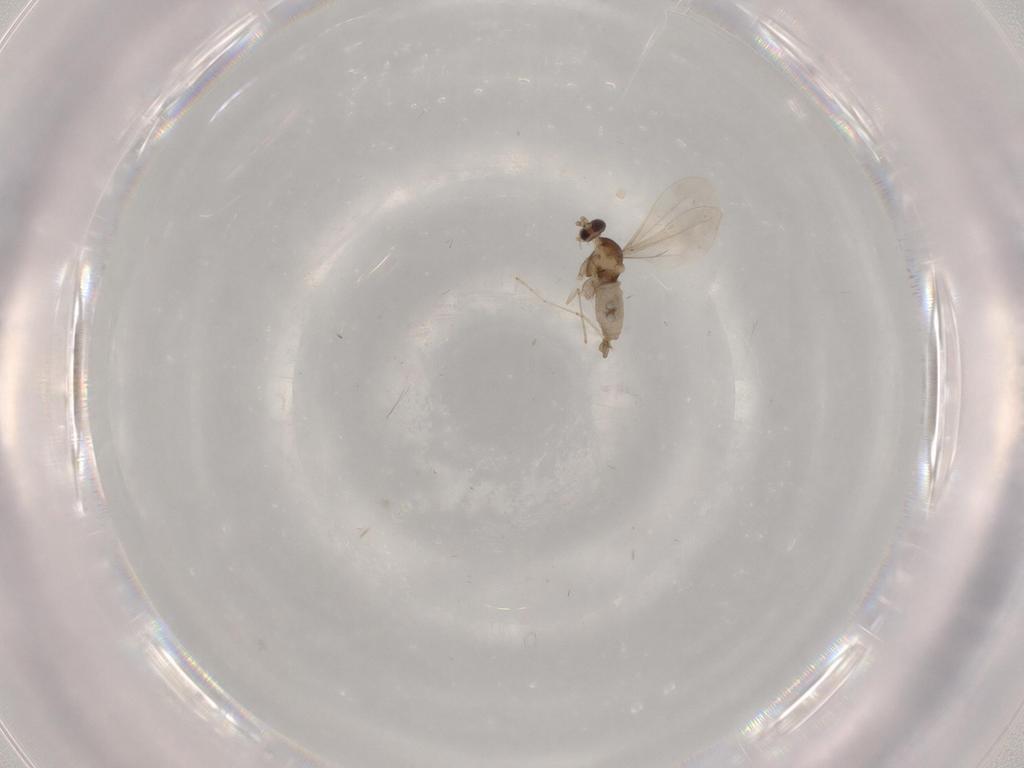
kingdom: Animalia
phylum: Arthropoda
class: Insecta
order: Diptera
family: Cecidomyiidae
